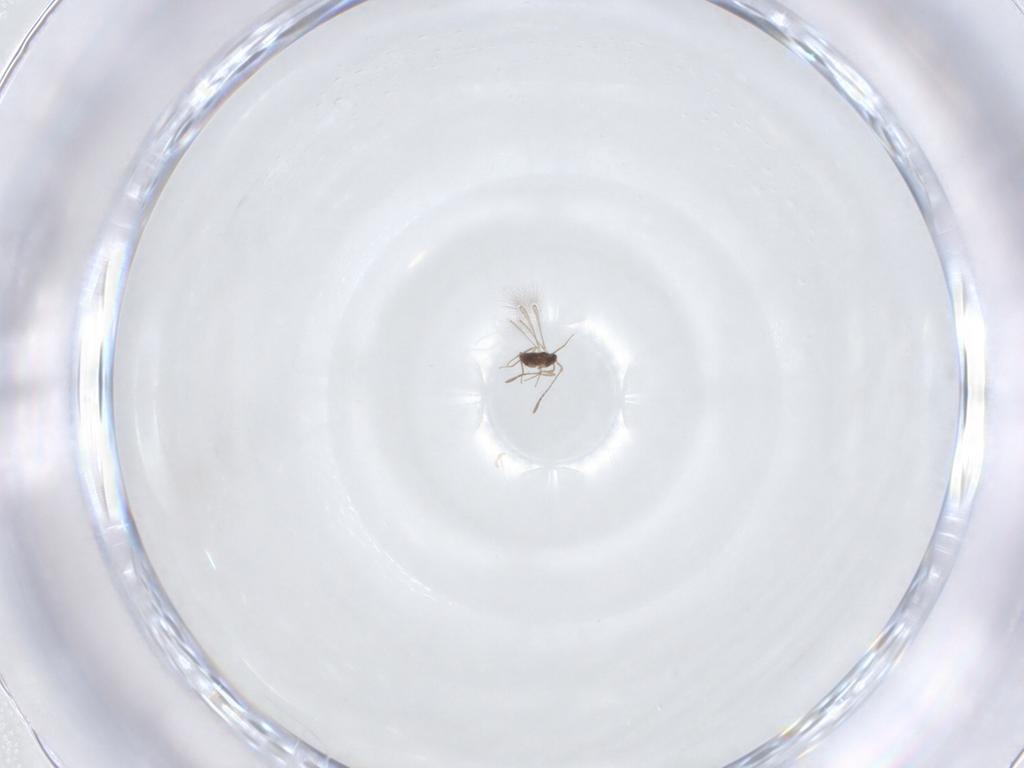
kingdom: Animalia
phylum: Arthropoda
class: Insecta
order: Hymenoptera
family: Mymaridae
